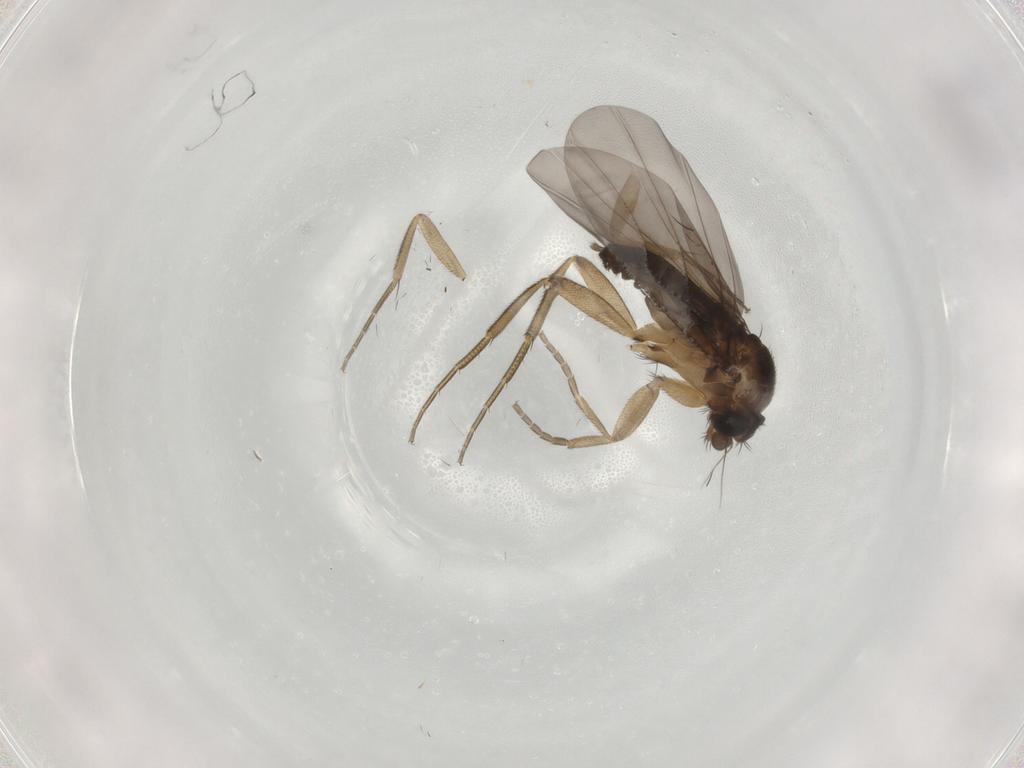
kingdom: Animalia
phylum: Arthropoda
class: Insecta
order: Diptera
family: Phoridae
